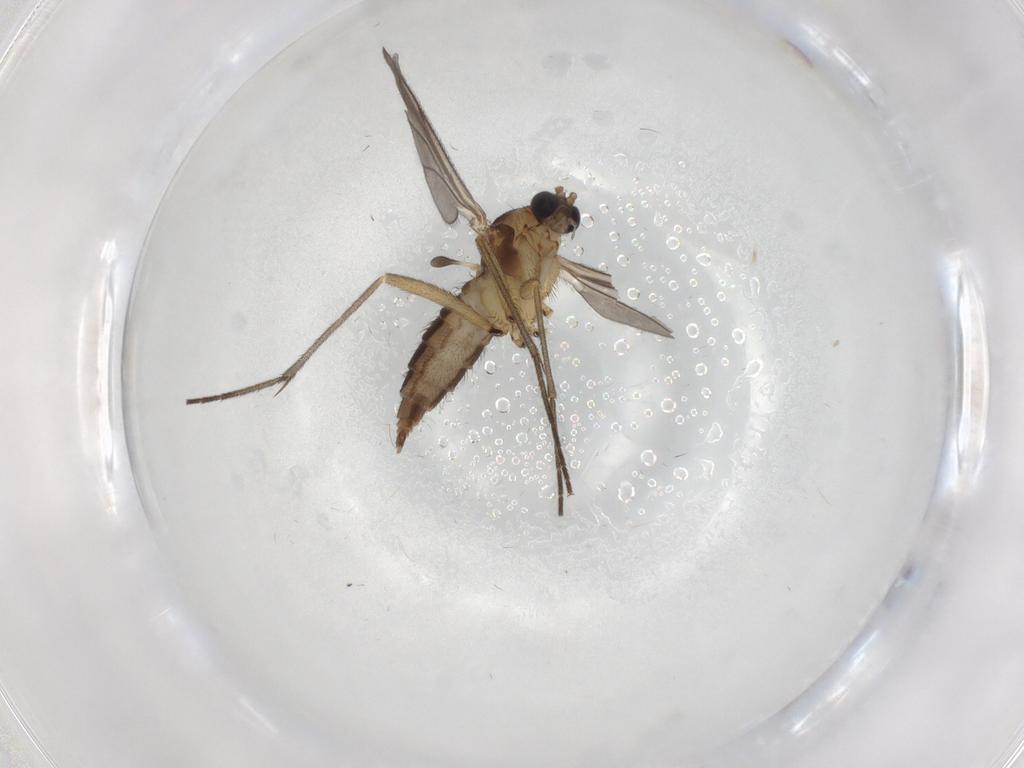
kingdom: Animalia
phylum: Arthropoda
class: Insecta
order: Diptera
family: Sciaridae
